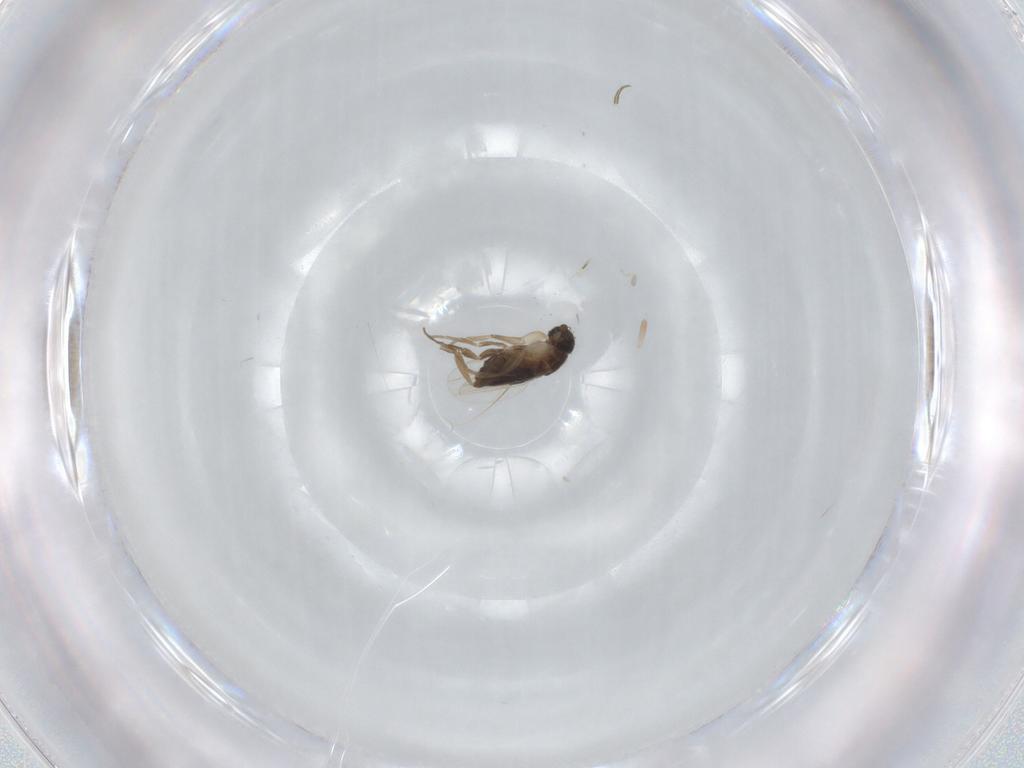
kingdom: Animalia
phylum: Arthropoda
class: Insecta
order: Diptera
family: Phoridae
